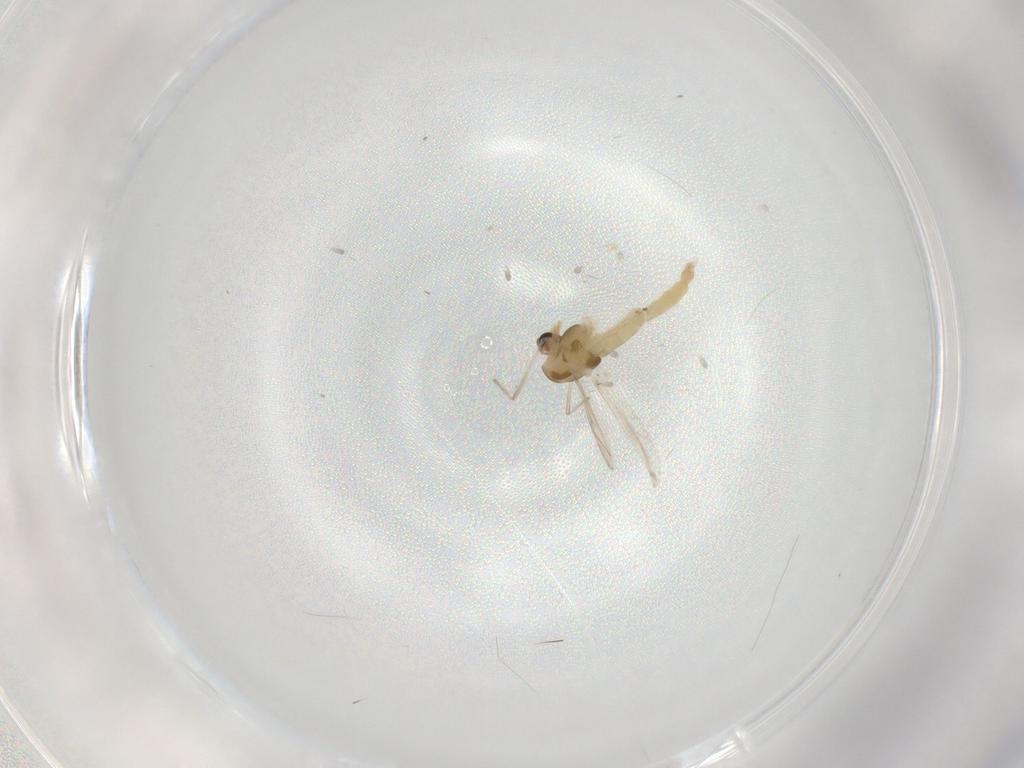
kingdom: Animalia
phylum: Arthropoda
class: Insecta
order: Diptera
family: Chironomidae
